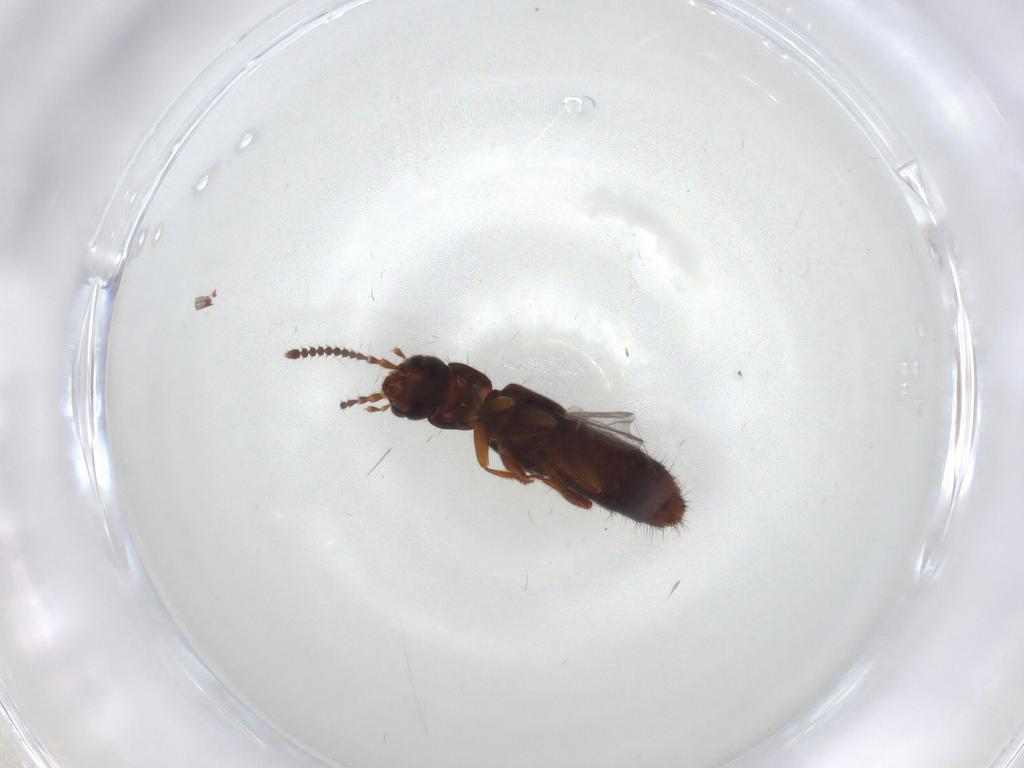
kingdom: Animalia
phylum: Arthropoda
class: Insecta
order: Coleoptera
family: Staphylinidae
